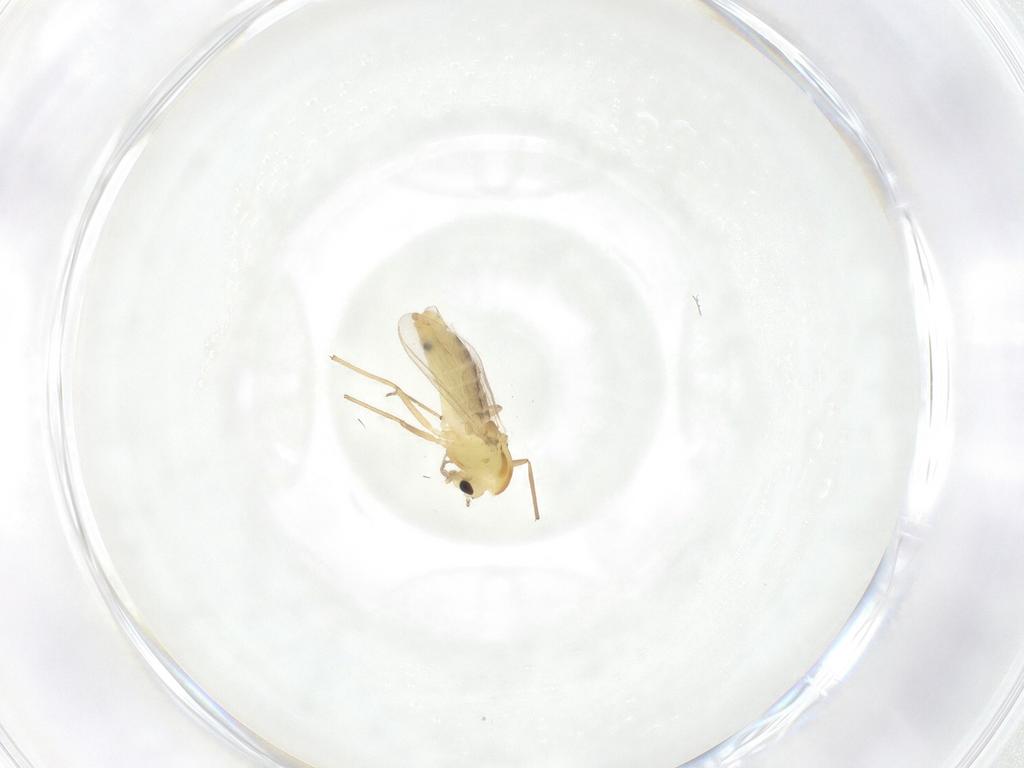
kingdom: Animalia
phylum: Arthropoda
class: Insecta
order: Diptera
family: Chironomidae
